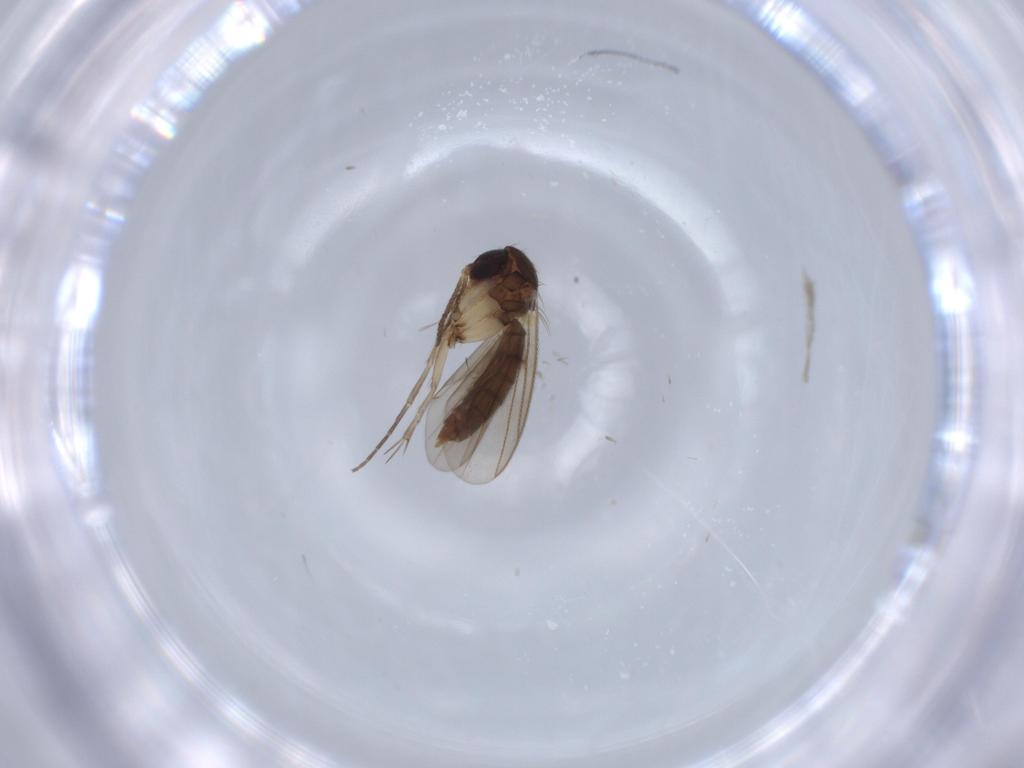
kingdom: Animalia
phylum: Arthropoda
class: Insecta
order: Diptera
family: Mycetophilidae
